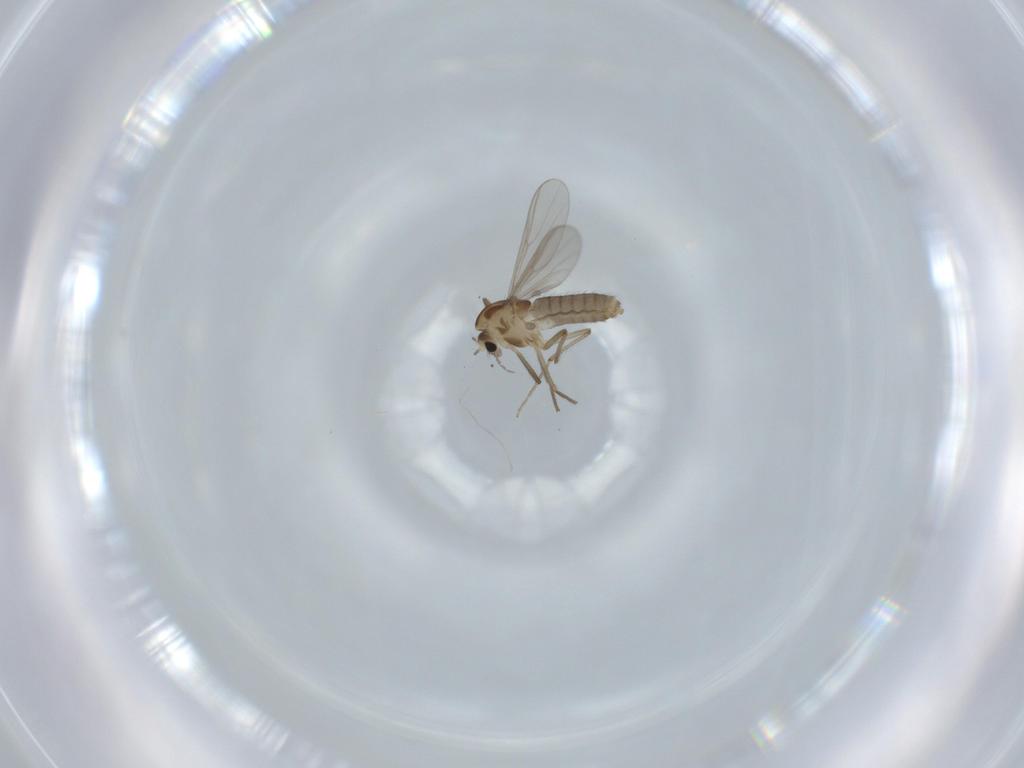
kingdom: Animalia
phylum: Arthropoda
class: Insecta
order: Diptera
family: Chironomidae
